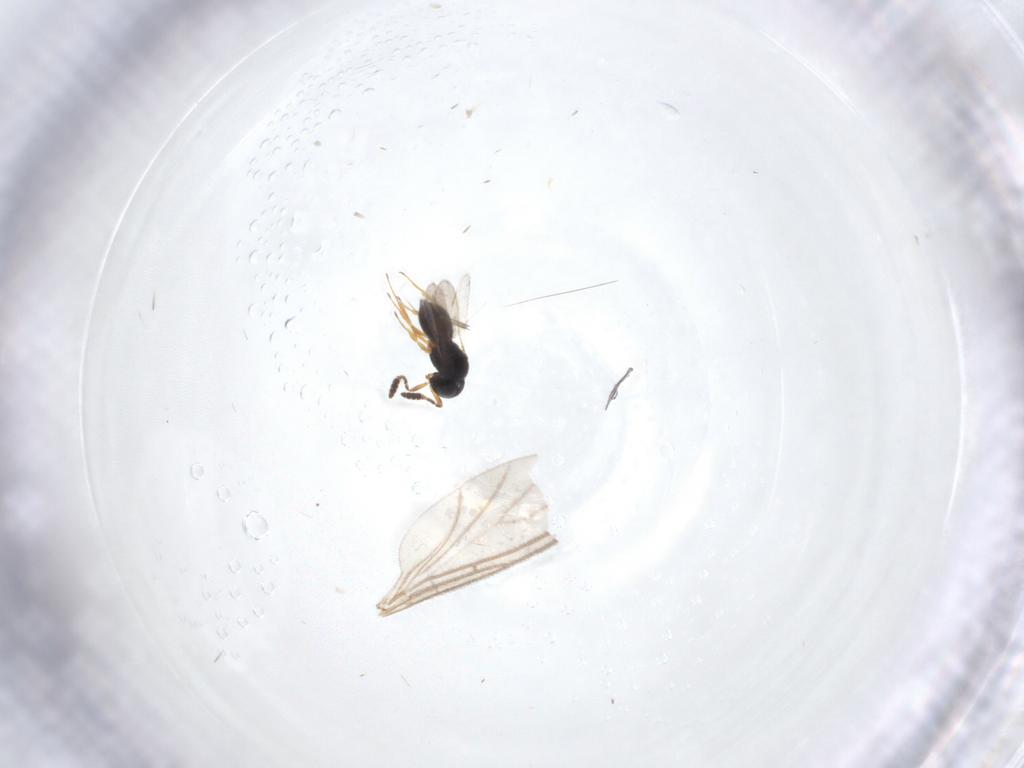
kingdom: Animalia
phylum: Arthropoda
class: Insecta
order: Hymenoptera
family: Scelionidae
